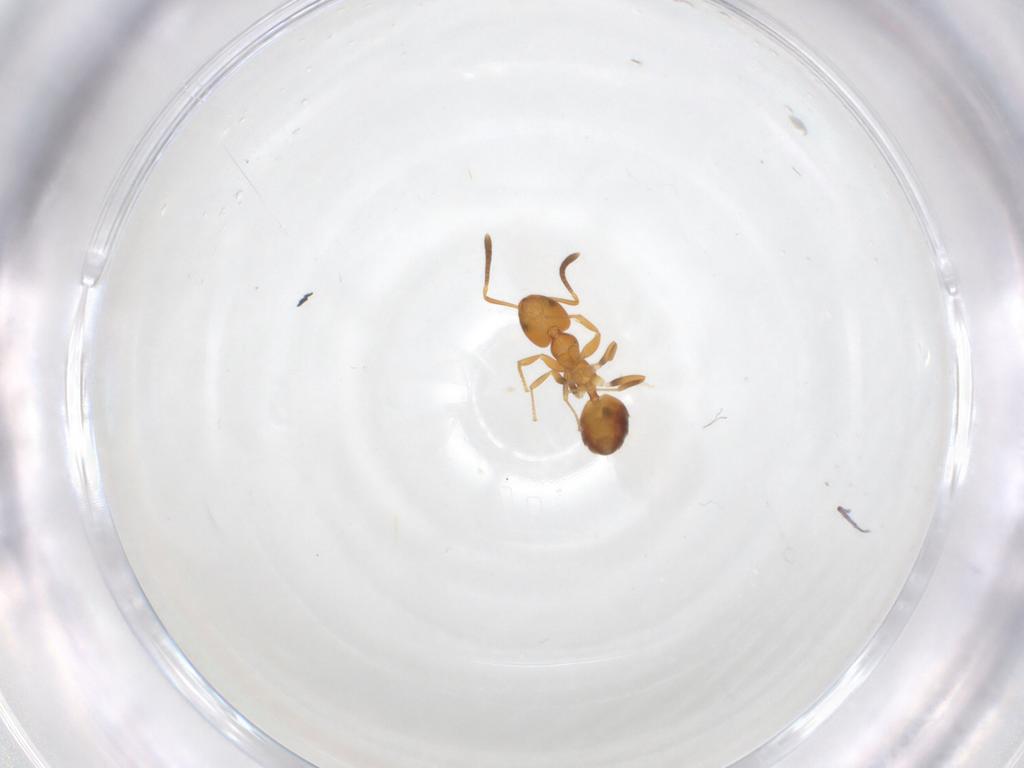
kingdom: Animalia
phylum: Arthropoda
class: Insecta
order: Hymenoptera
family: Formicidae
